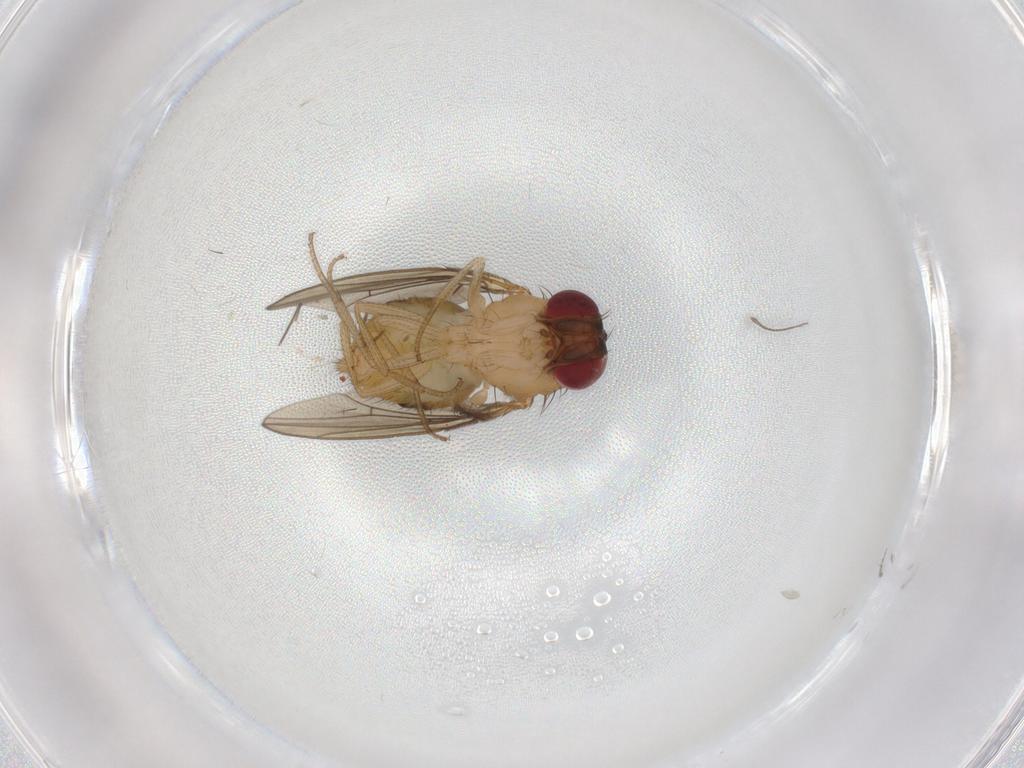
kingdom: Animalia
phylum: Arthropoda
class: Insecta
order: Diptera
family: Drosophilidae
